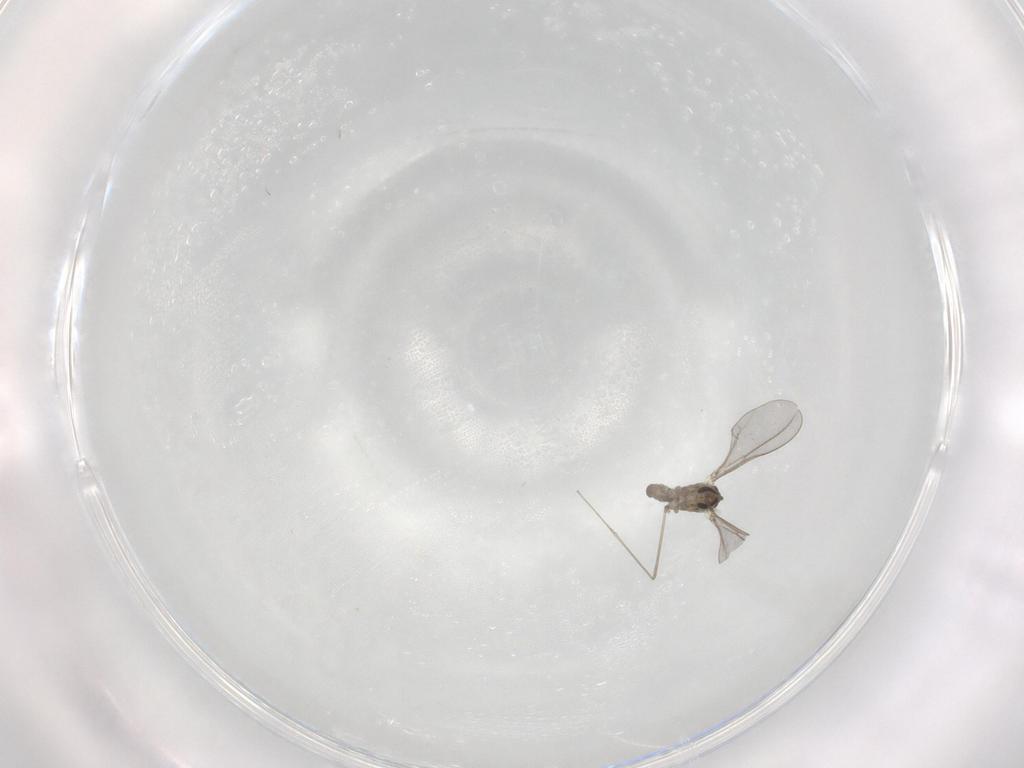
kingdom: Animalia
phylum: Arthropoda
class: Insecta
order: Diptera
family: Cecidomyiidae
